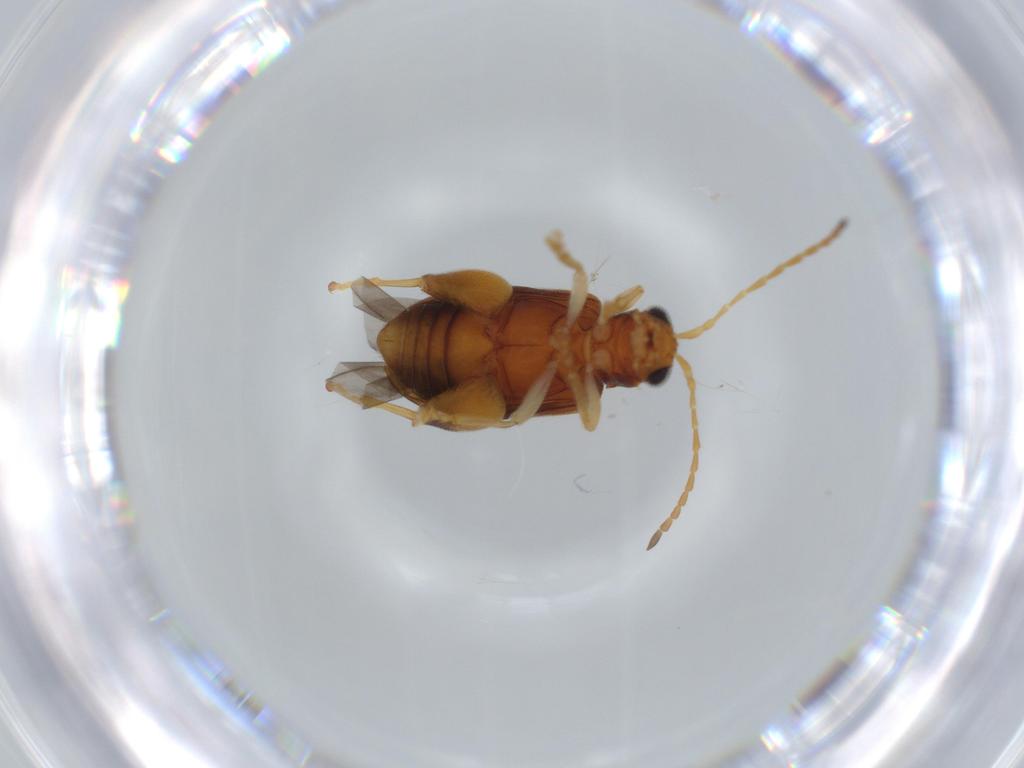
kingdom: Animalia
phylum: Arthropoda
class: Insecta
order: Coleoptera
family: Chrysomelidae
